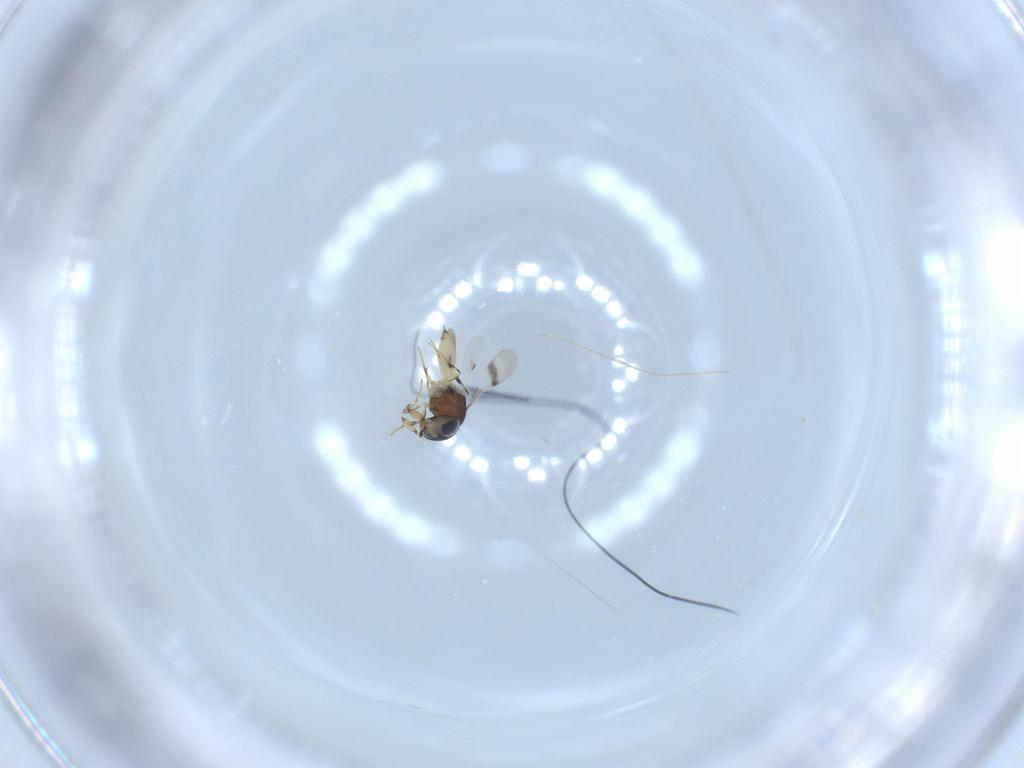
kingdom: Animalia
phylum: Arthropoda
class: Insecta
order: Hymenoptera
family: Scelionidae
